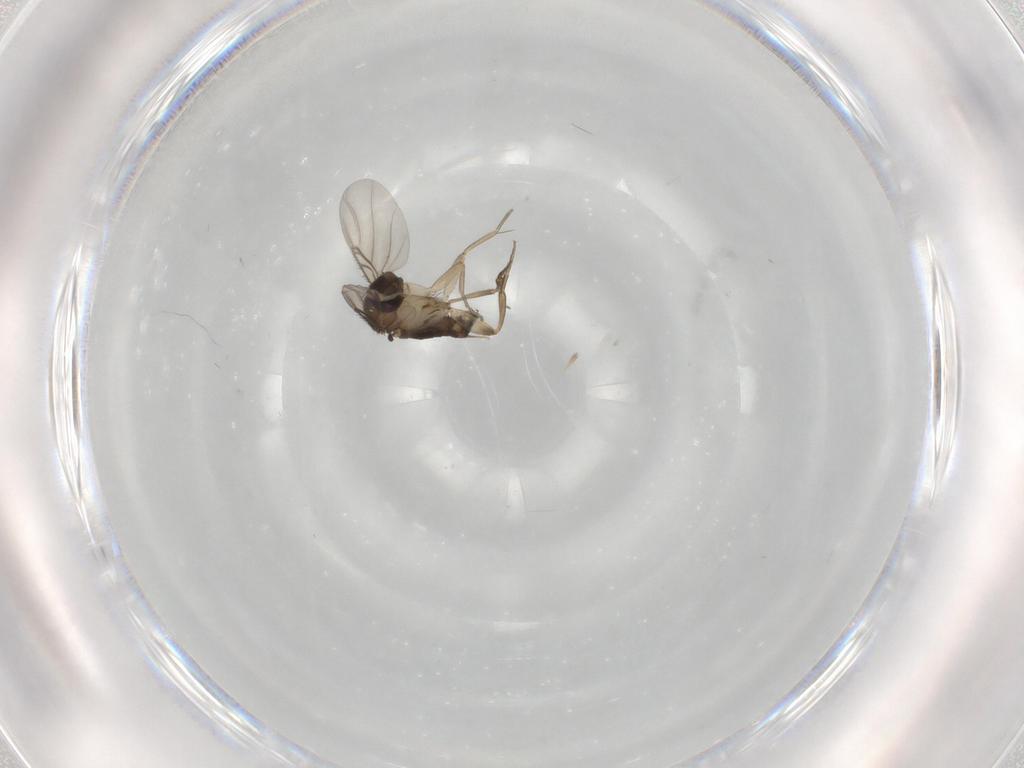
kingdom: Animalia
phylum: Arthropoda
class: Insecta
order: Diptera
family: Phoridae
